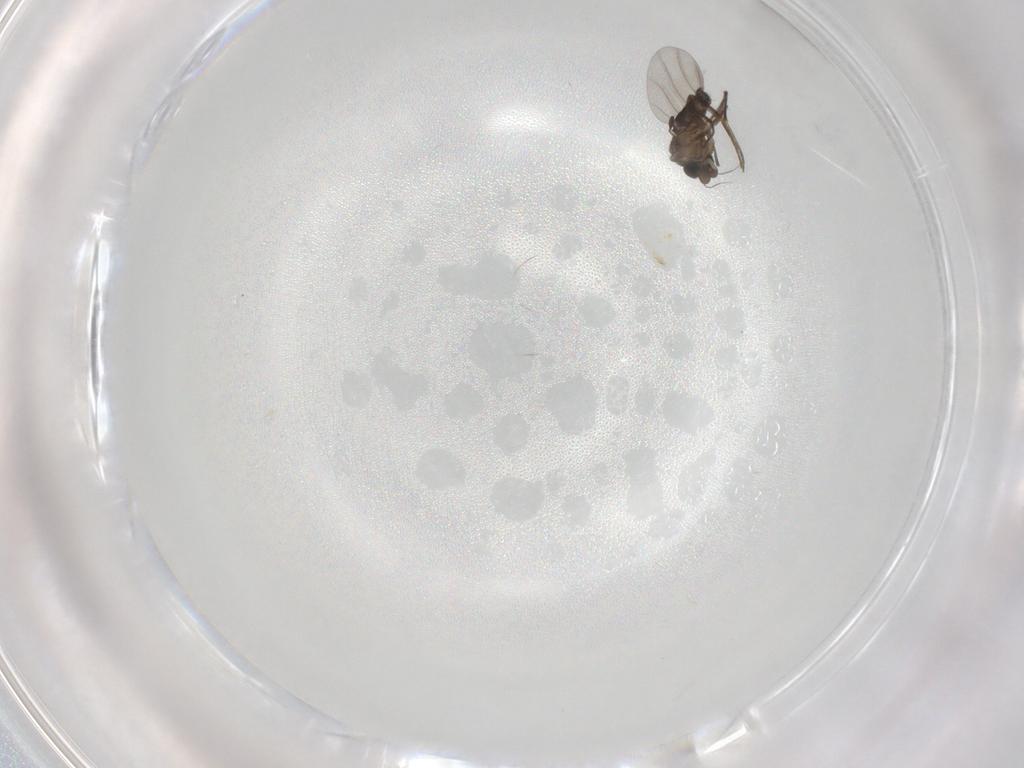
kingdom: Animalia
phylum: Arthropoda
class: Insecta
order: Diptera
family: Phoridae
